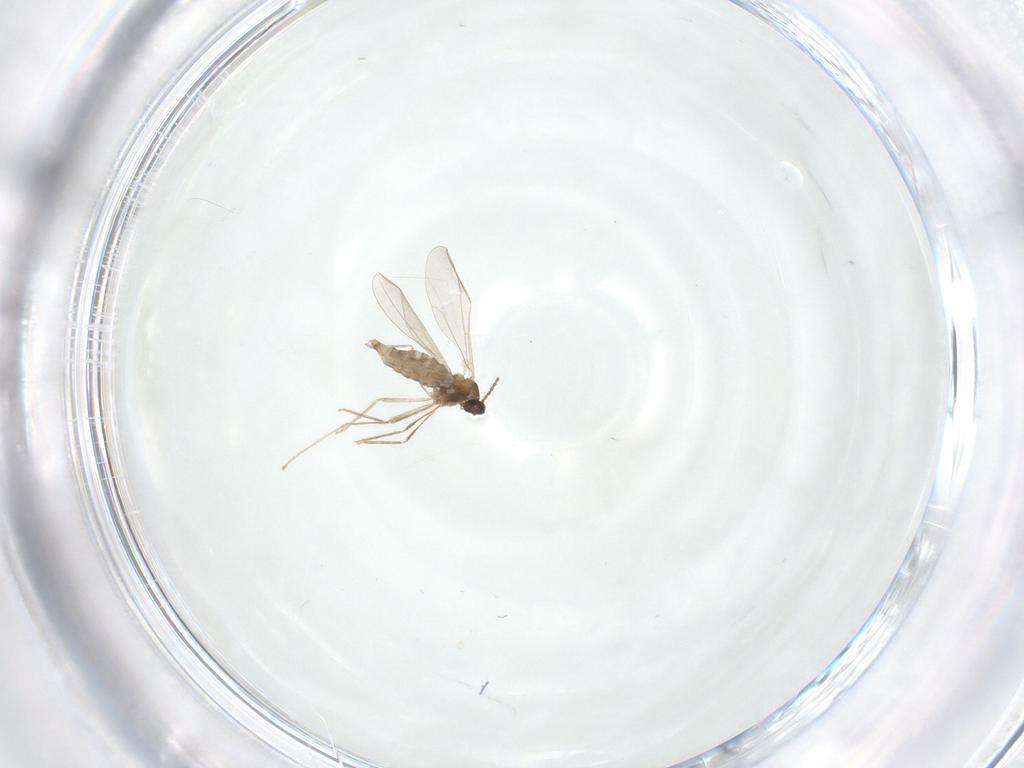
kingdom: Animalia
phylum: Arthropoda
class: Insecta
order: Diptera
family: Cecidomyiidae
